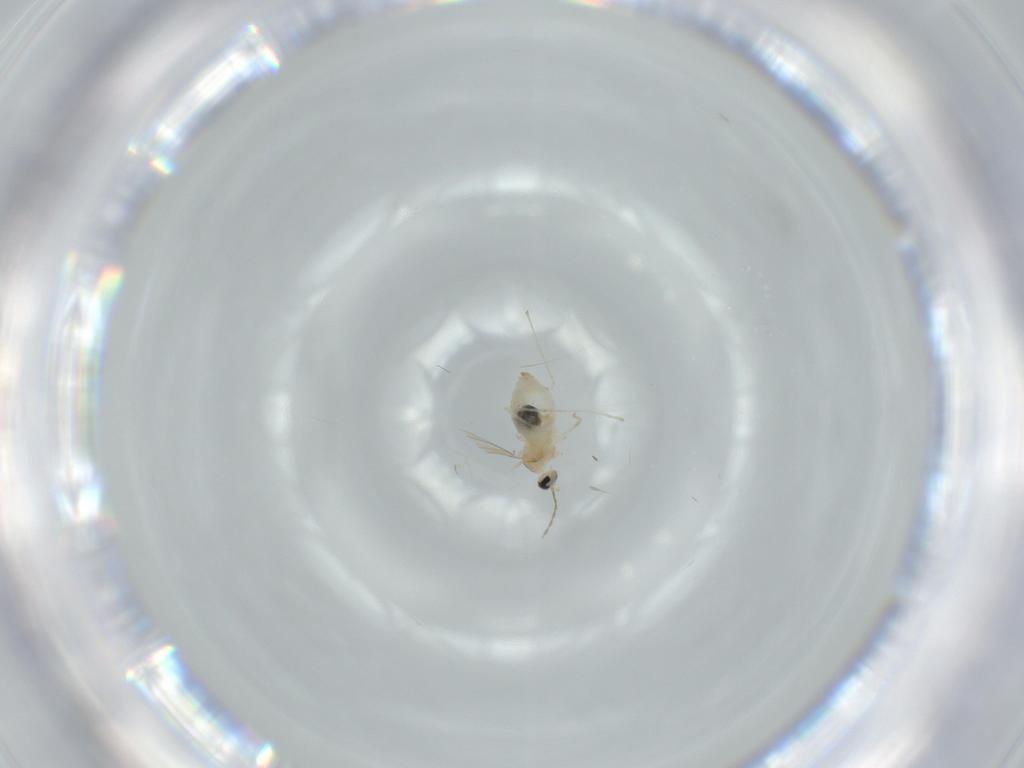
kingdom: Animalia
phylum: Arthropoda
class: Insecta
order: Diptera
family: Cecidomyiidae
